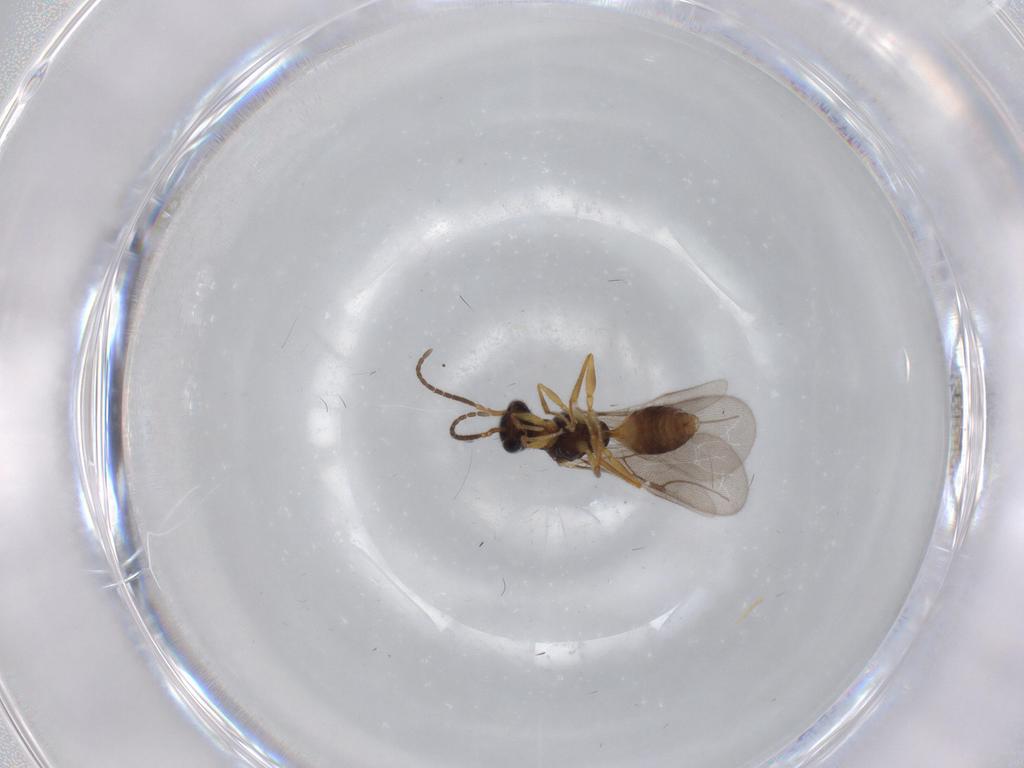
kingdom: Animalia
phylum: Arthropoda
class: Insecta
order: Hymenoptera
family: Bethylidae
